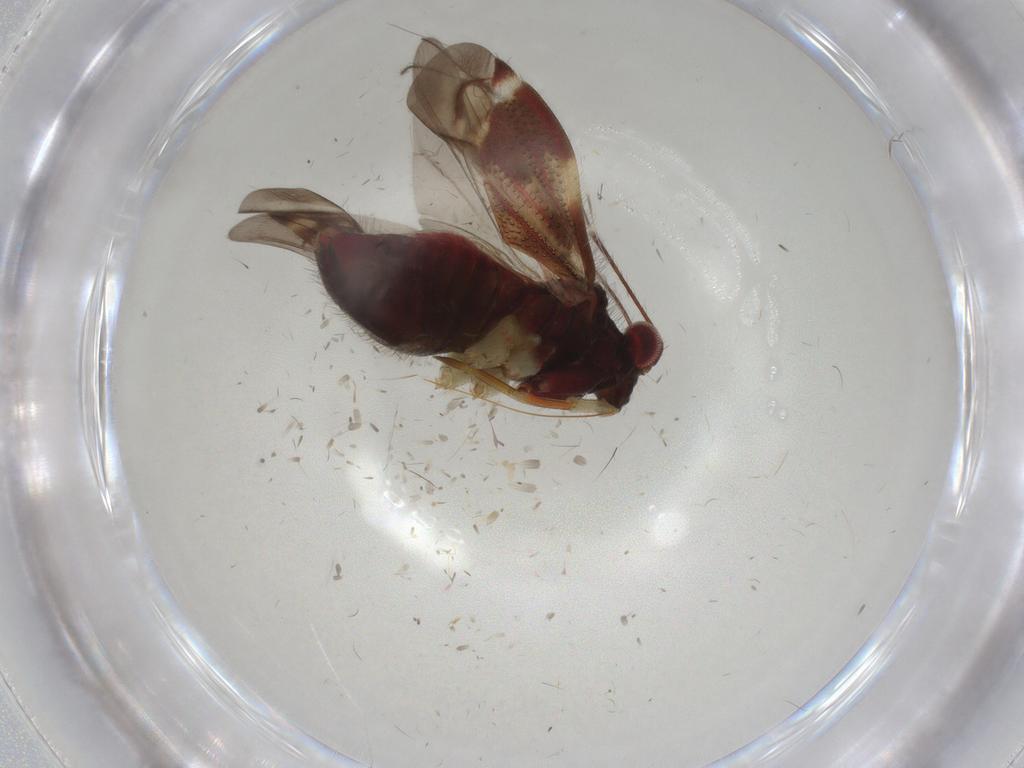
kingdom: Animalia
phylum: Arthropoda
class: Insecta
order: Hemiptera
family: Miridae
